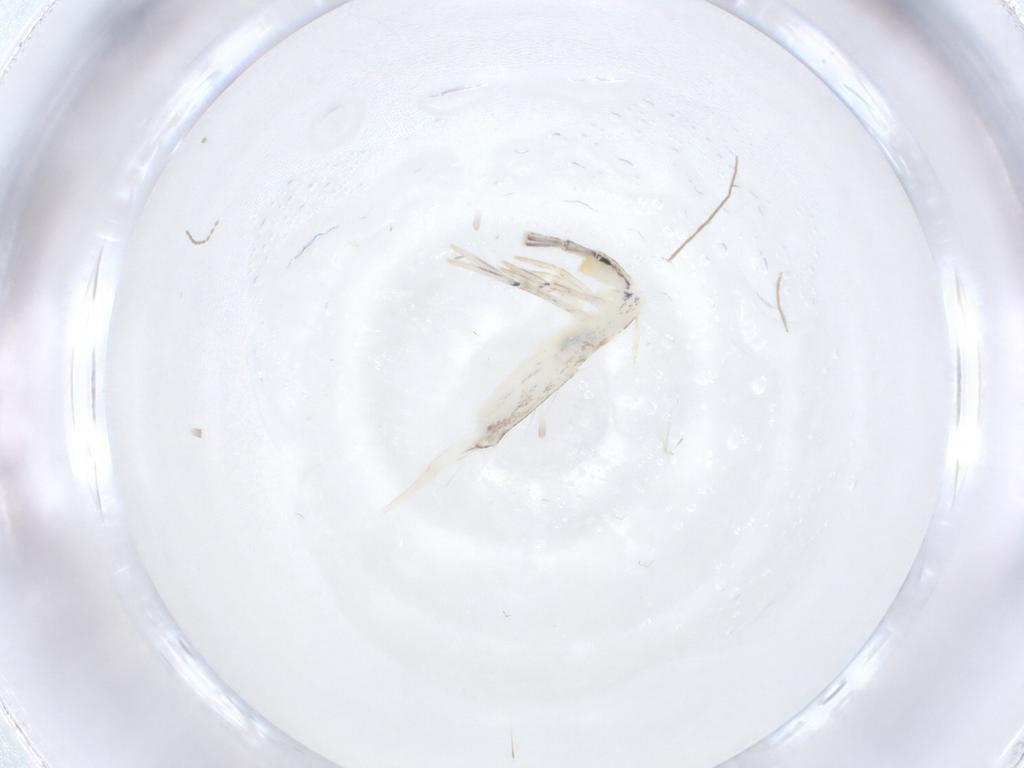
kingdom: Animalia
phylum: Arthropoda
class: Collembola
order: Entomobryomorpha
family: Entomobryidae
